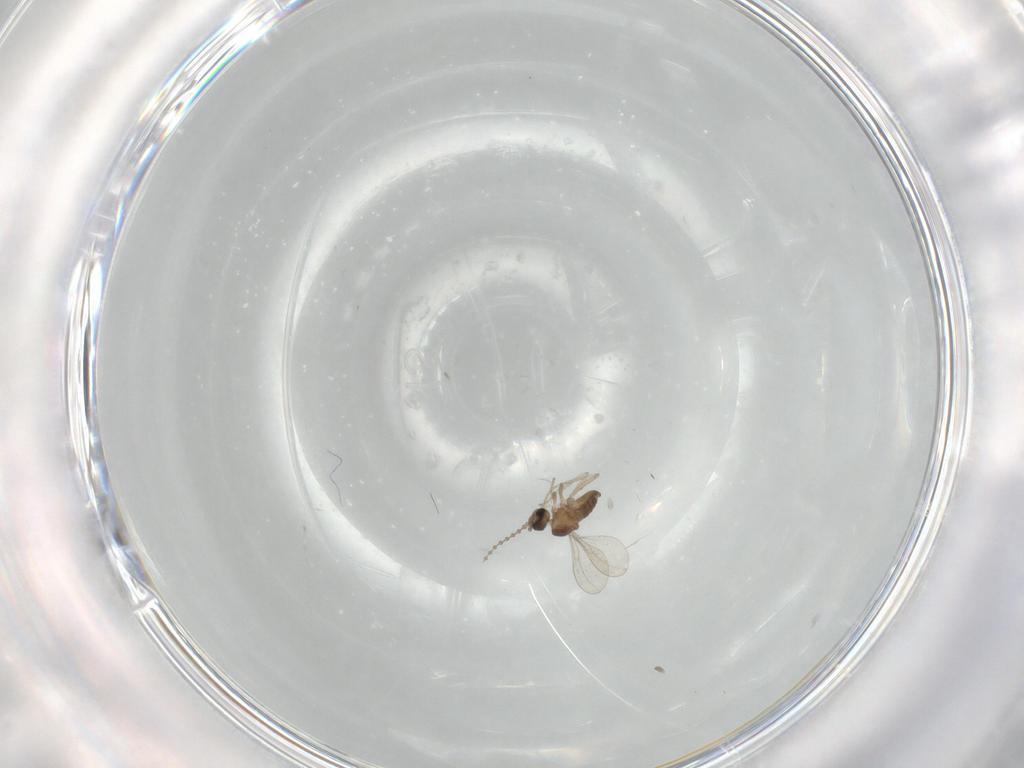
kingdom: Animalia
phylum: Arthropoda
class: Insecta
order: Diptera
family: Cecidomyiidae
